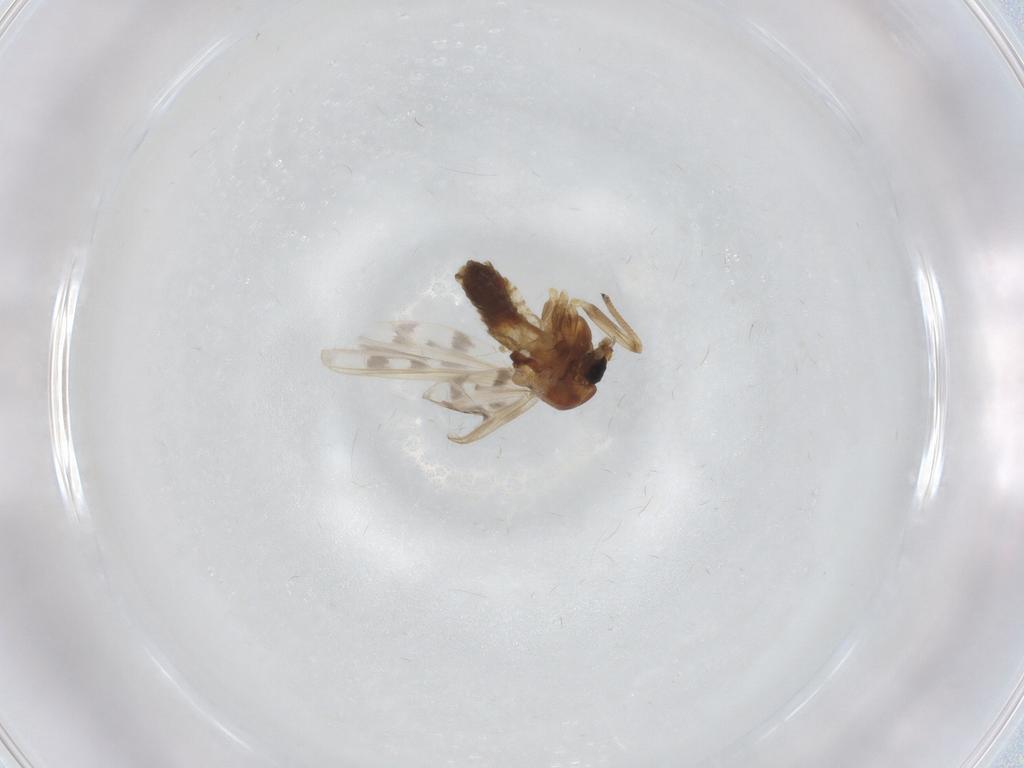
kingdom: Animalia
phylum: Arthropoda
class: Insecta
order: Diptera
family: Chironomidae
